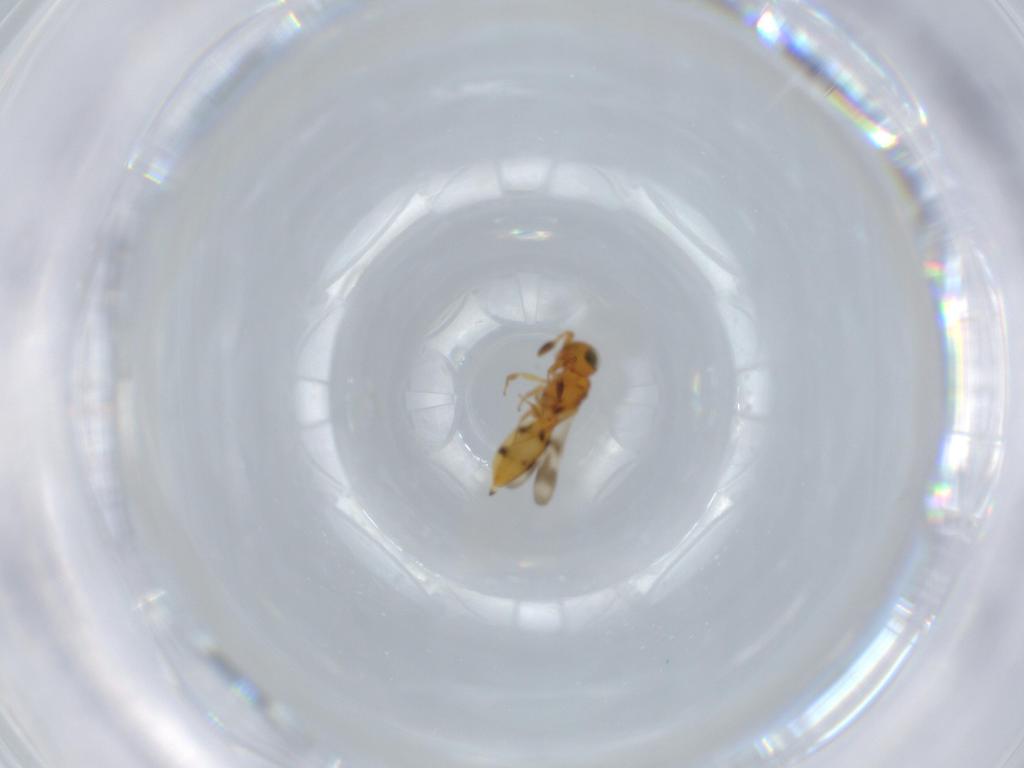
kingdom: Animalia
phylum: Arthropoda
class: Insecta
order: Hymenoptera
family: Scelionidae
